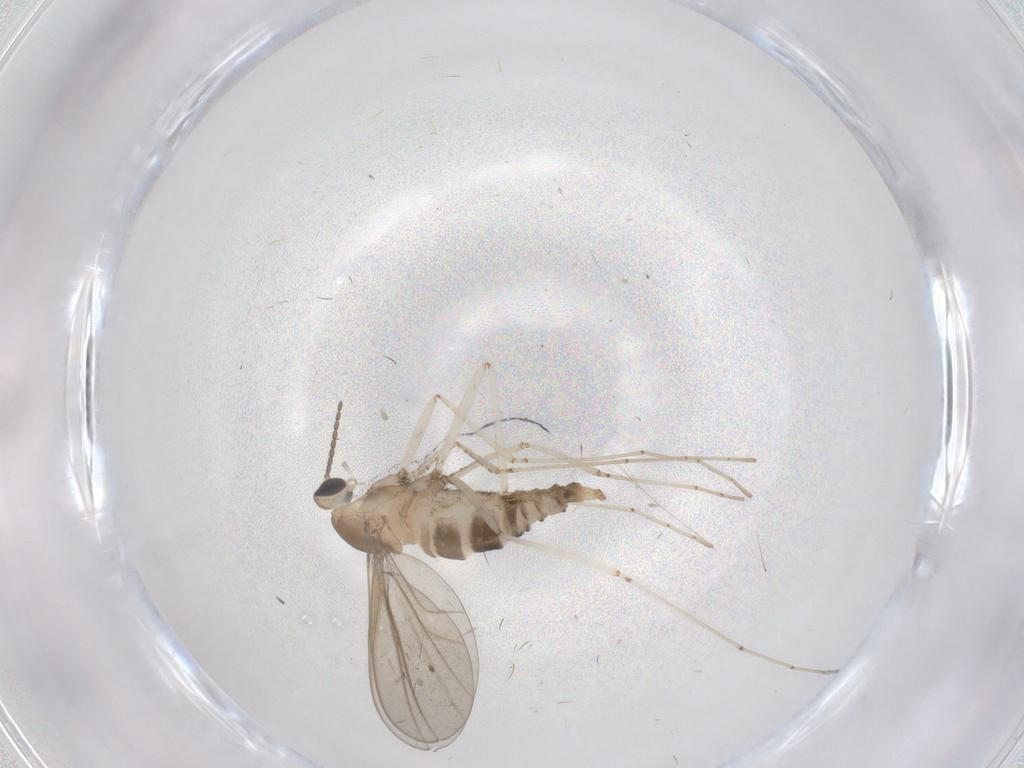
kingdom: Animalia
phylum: Arthropoda
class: Insecta
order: Diptera
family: Cecidomyiidae
